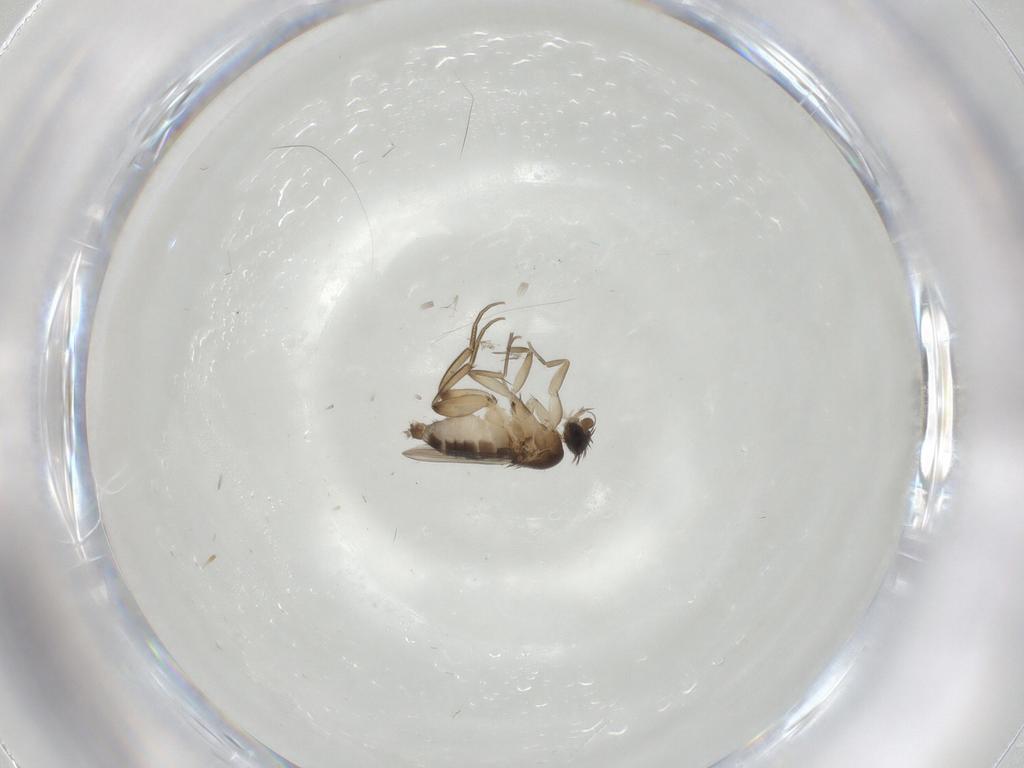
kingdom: Animalia
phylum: Arthropoda
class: Insecta
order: Diptera
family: Phoridae
